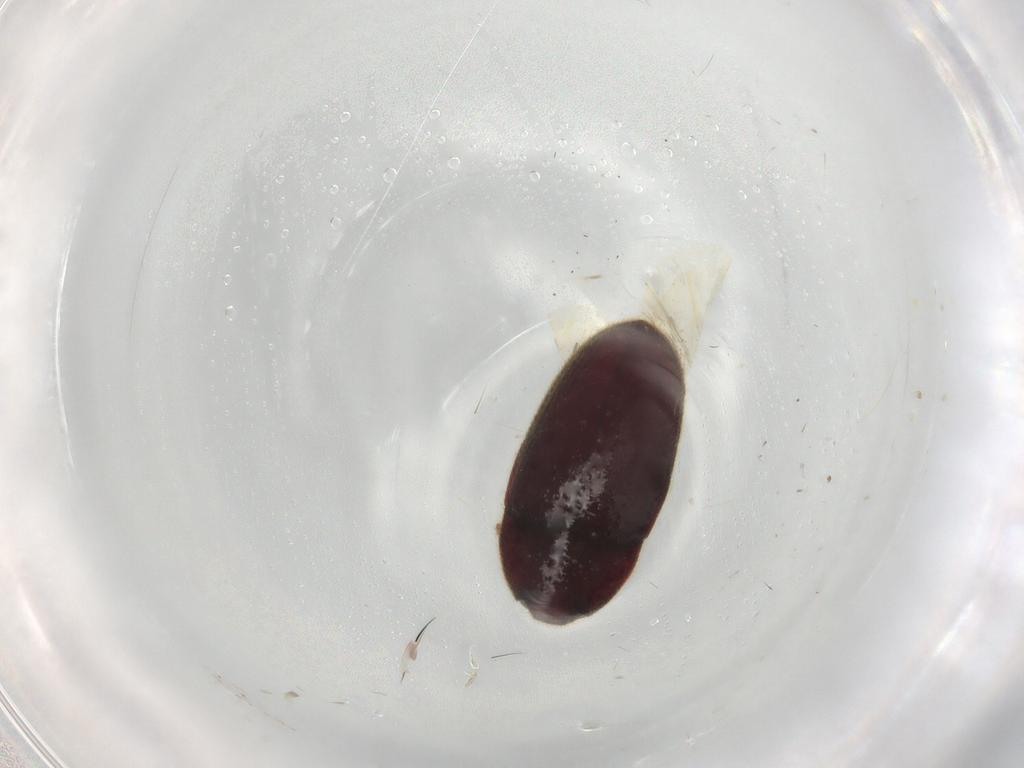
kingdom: Animalia
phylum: Arthropoda
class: Insecta
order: Coleoptera
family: Throscidae
